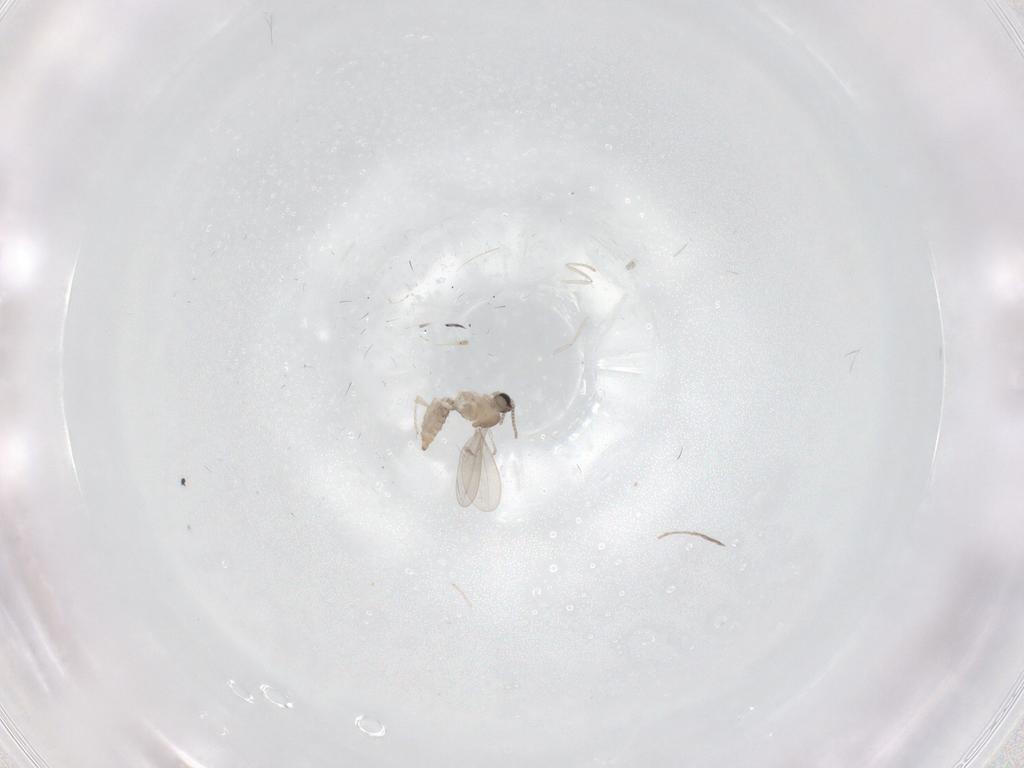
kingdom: Animalia
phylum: Arthropoda
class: Insecta
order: Diptera
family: Cecidomyiidae
